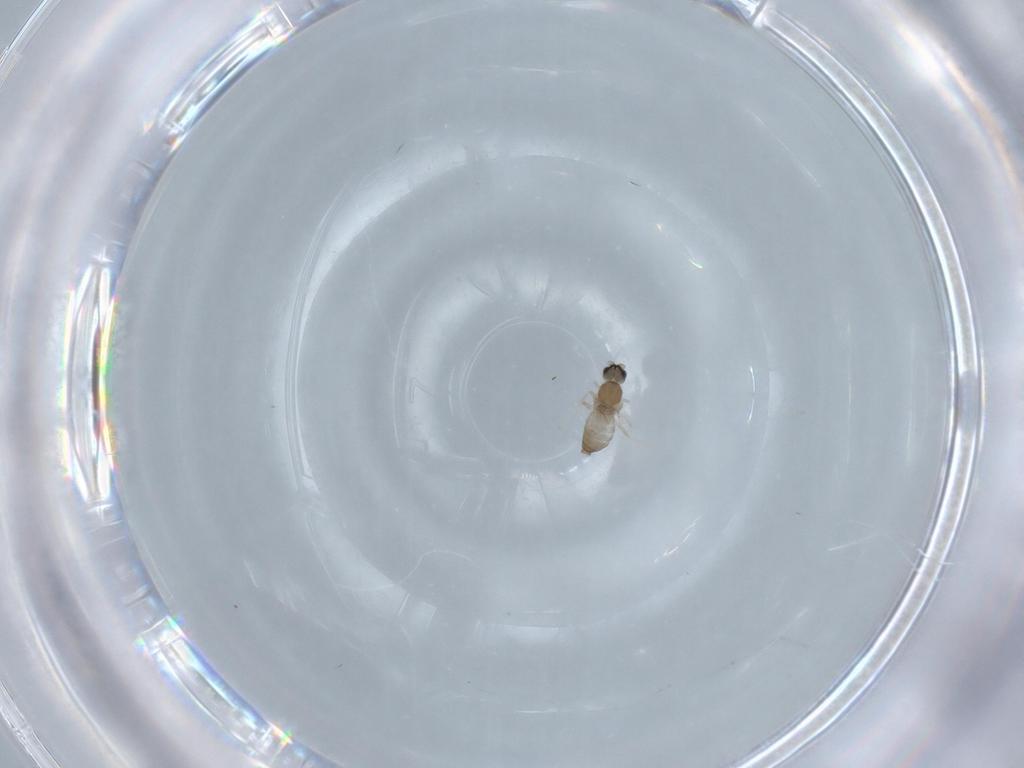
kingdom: Animalia
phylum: Arthropoda
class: Insecta
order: Diptera
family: Cecidomyiidae
